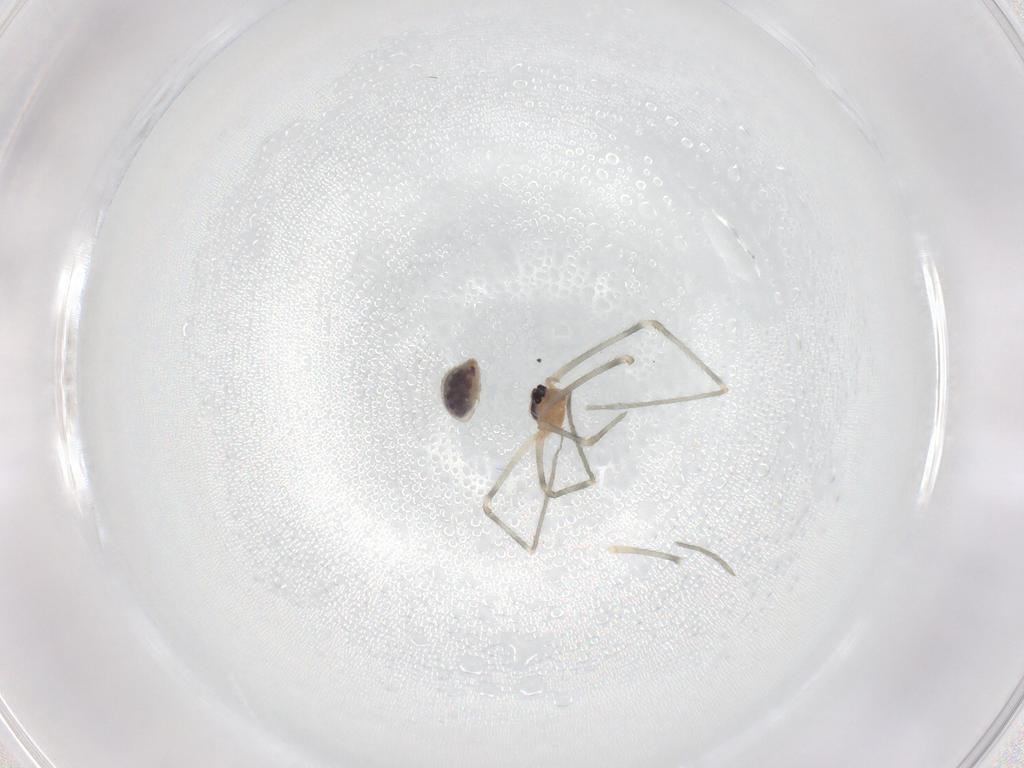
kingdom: Animalia
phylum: Arthropoda
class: Arachnida
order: Araneae
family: Pholcidae
